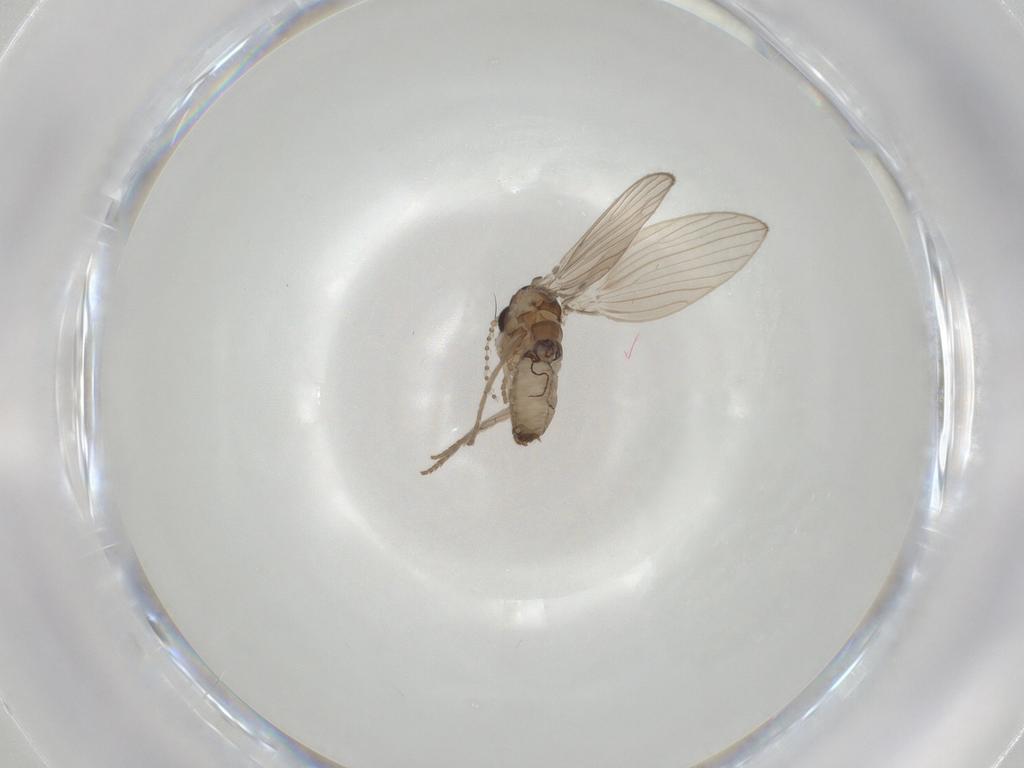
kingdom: Animalia
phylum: Arthropoda
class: Insecta
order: Diptera
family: Psychodidae
